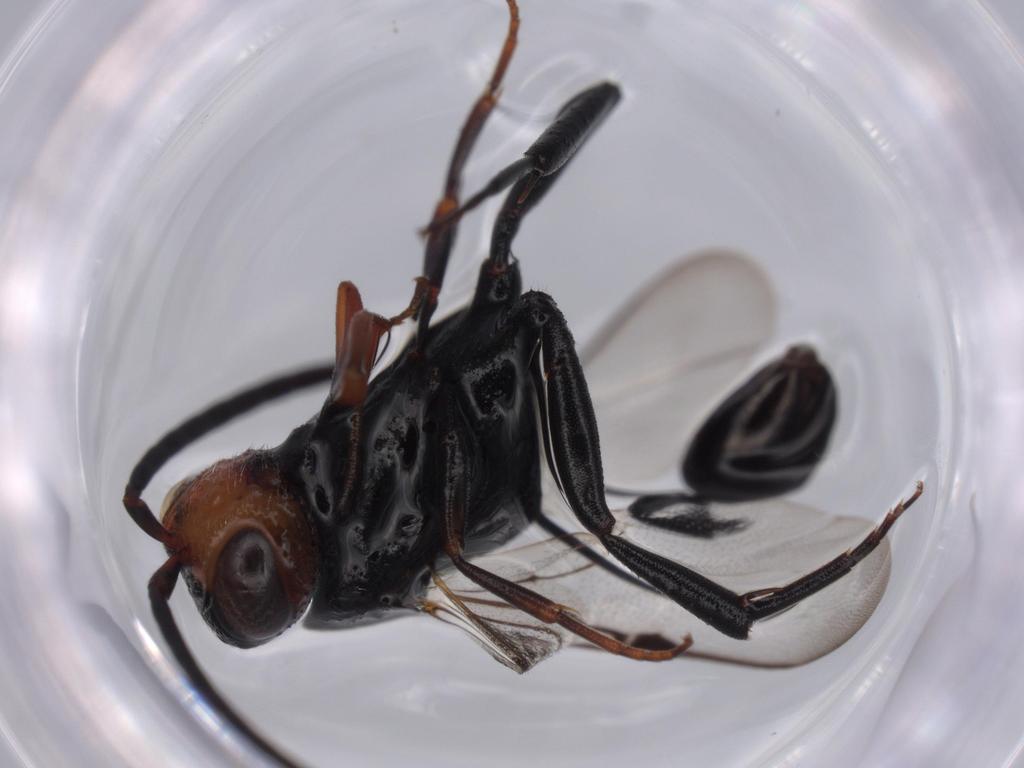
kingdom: Animalia
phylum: Arthropoda
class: Insecta
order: Hymenoptera
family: Evaniidae
